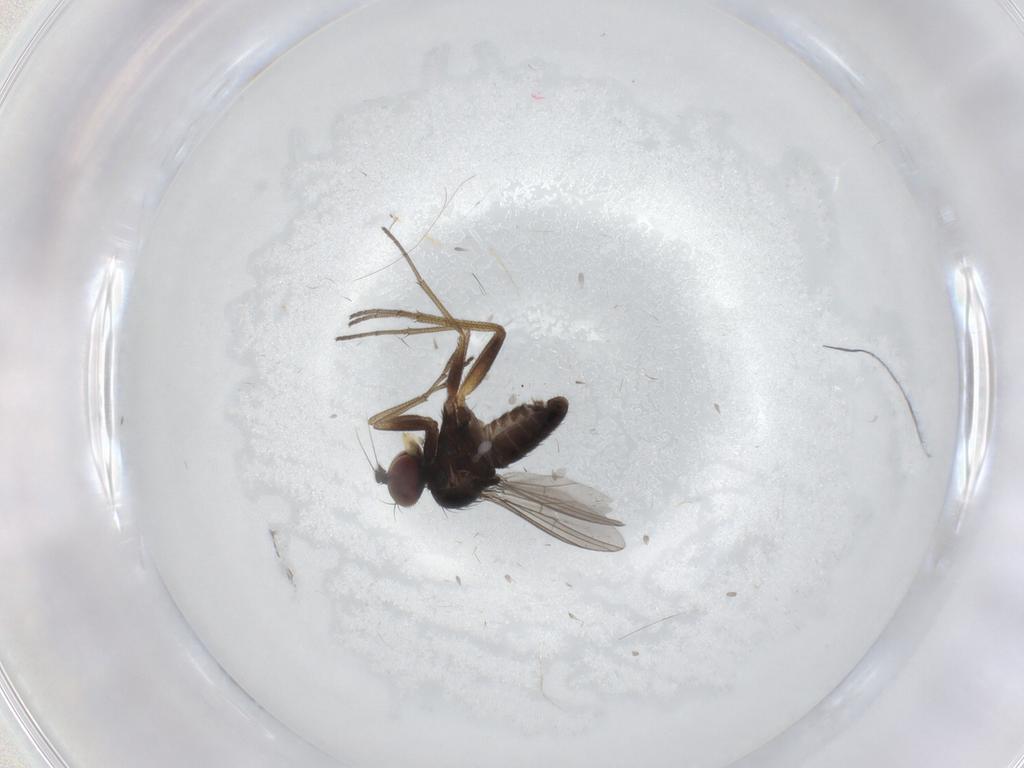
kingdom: Animalia
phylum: Arthropoda
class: Insecta
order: Diptera
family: Dolichopodidae
